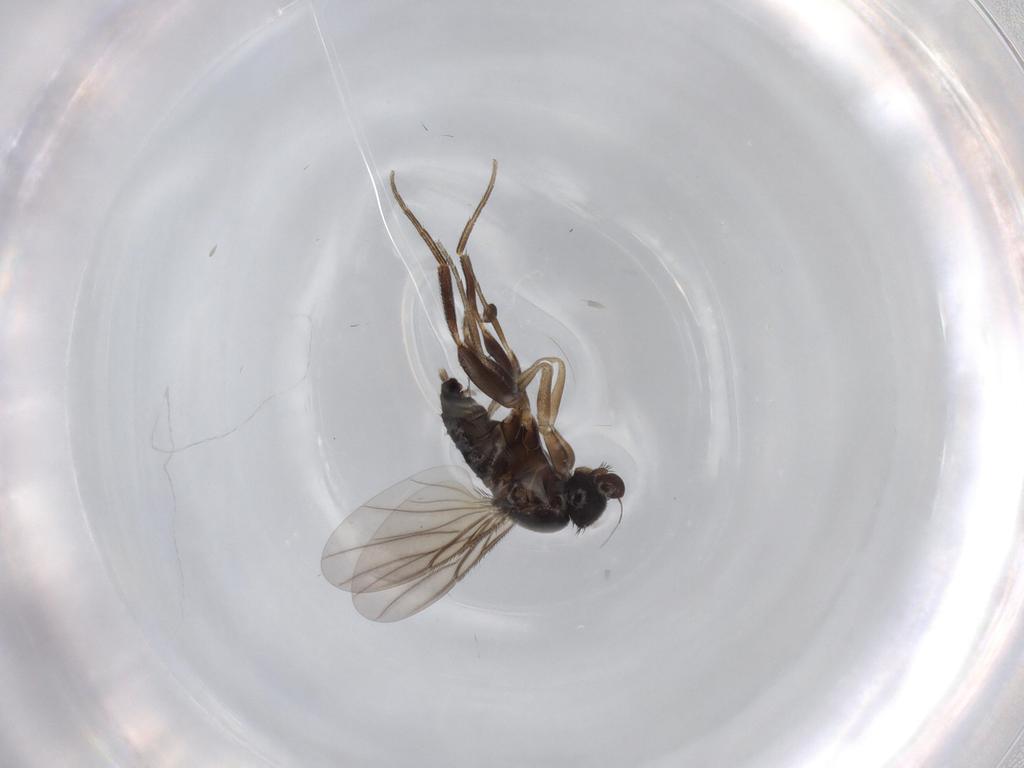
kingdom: Animalia
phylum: Arthropoda
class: Insecta
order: Diptera
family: Phoridae
